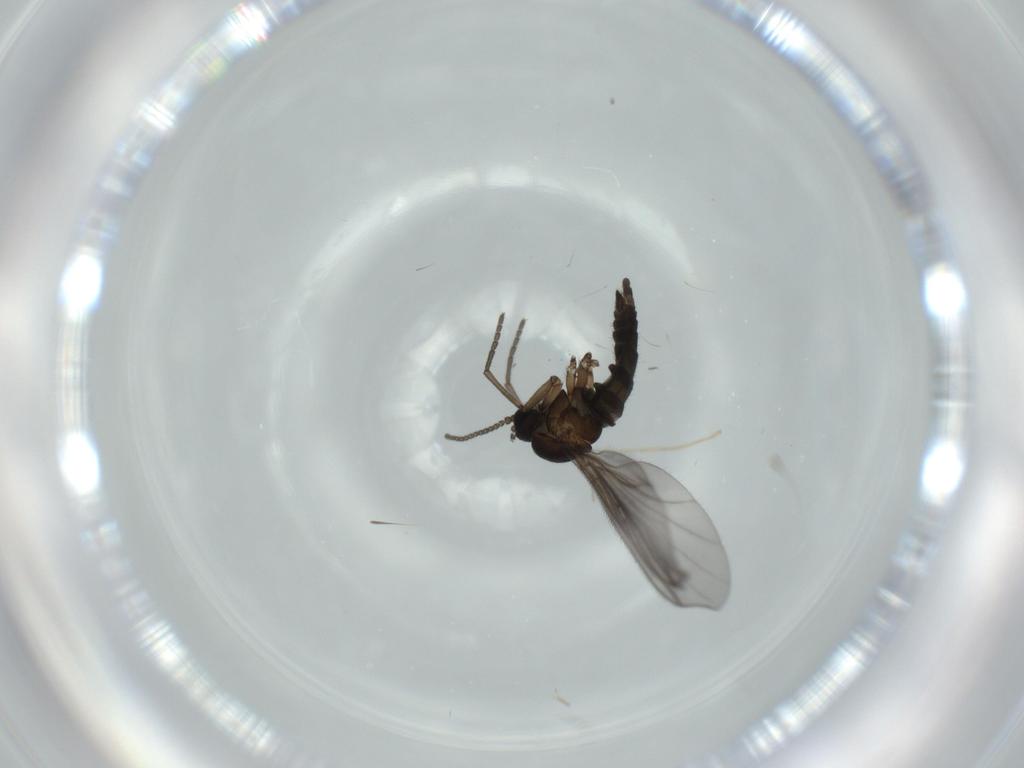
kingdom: Animalia
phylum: Arthropoda
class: Insecta
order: Diptera
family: Sciaridae
